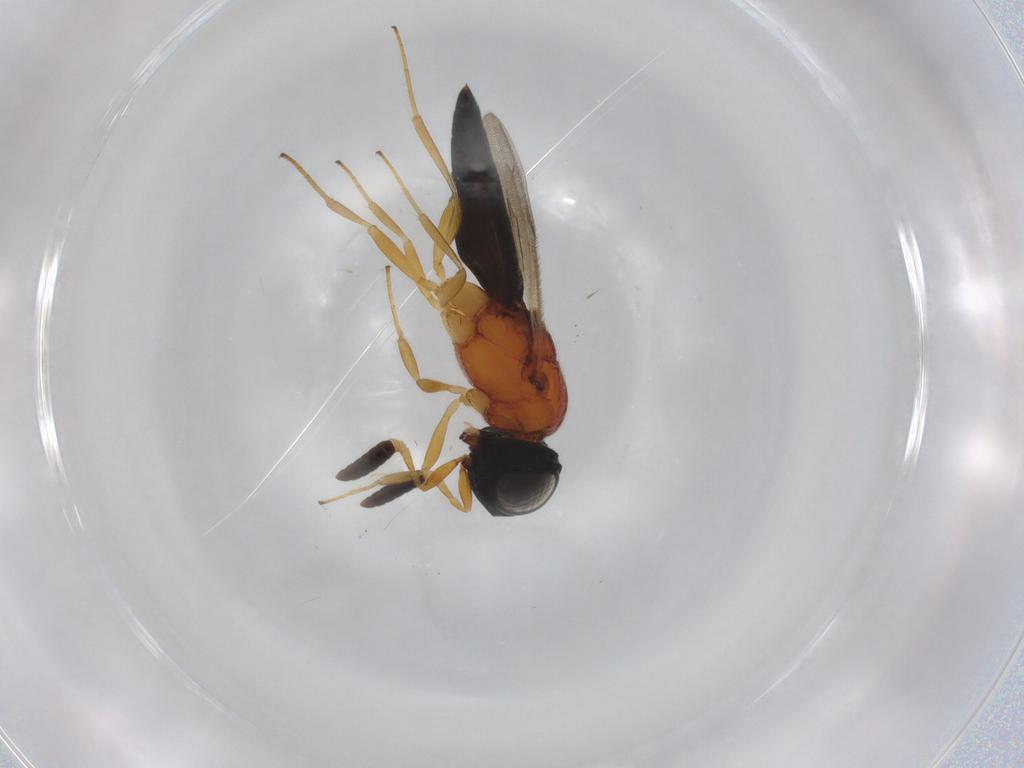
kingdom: Animalia
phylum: Arthropoda
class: Insecta
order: Hymenoptera
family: Scelionidae
